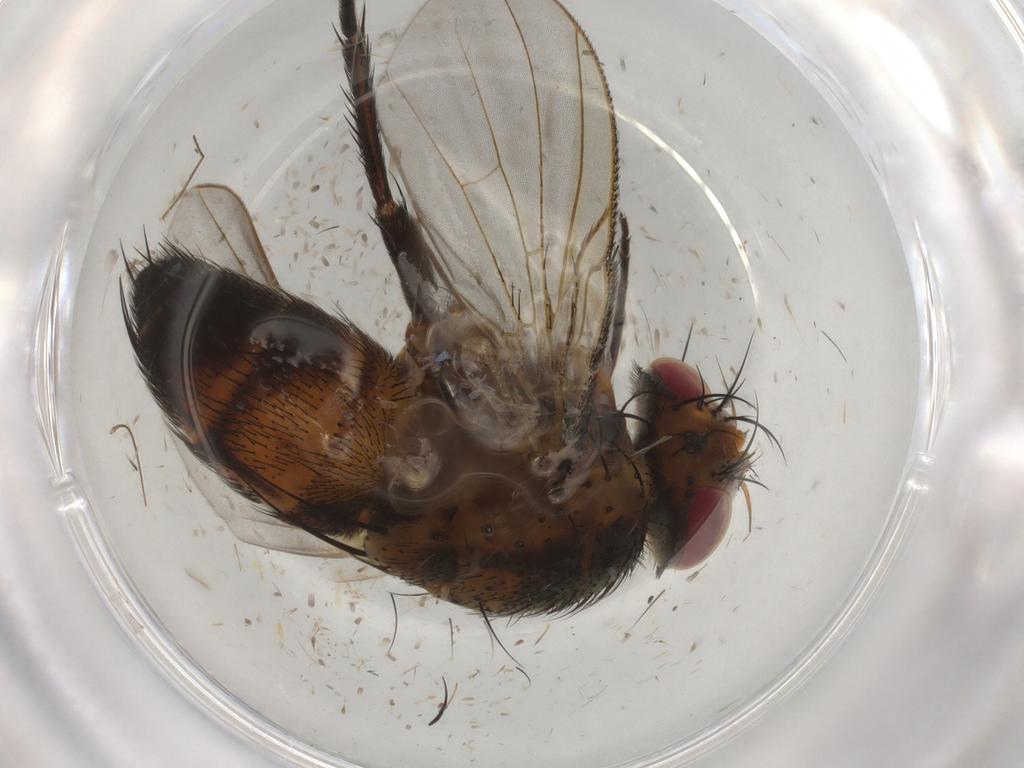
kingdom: Animalia
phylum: Arthropoda
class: Insecta
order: Diptera
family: Tachinidae
